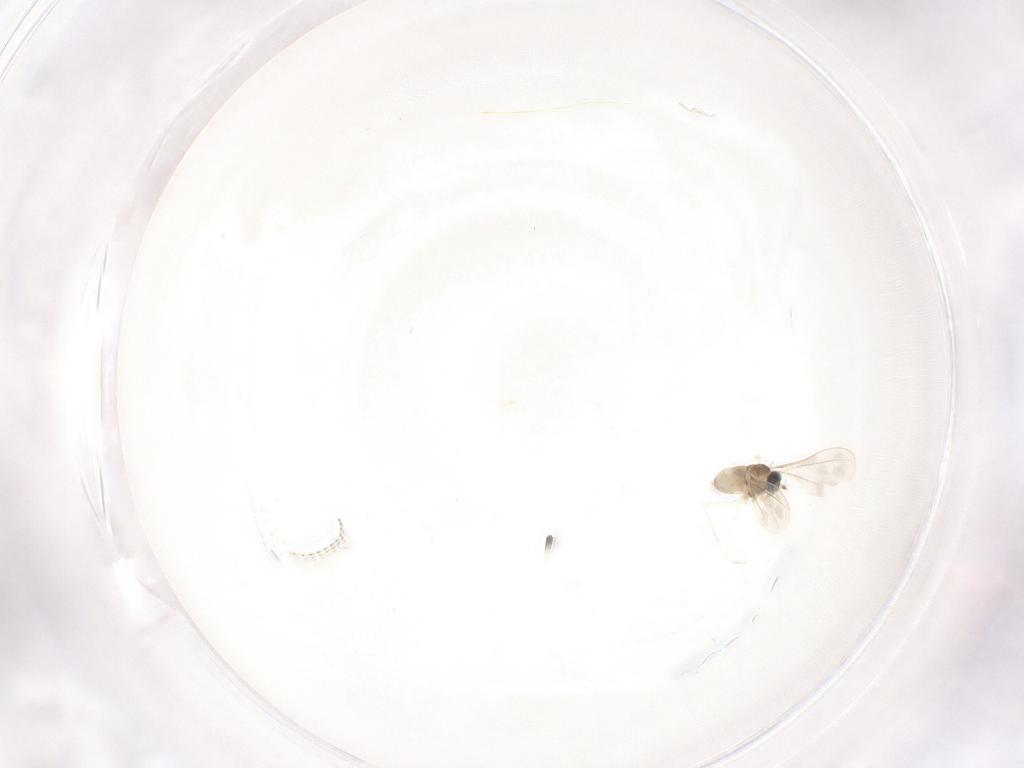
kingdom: Animalia
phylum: Arthropoda
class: Insecta
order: Diptera
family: Cecidomyiidae
